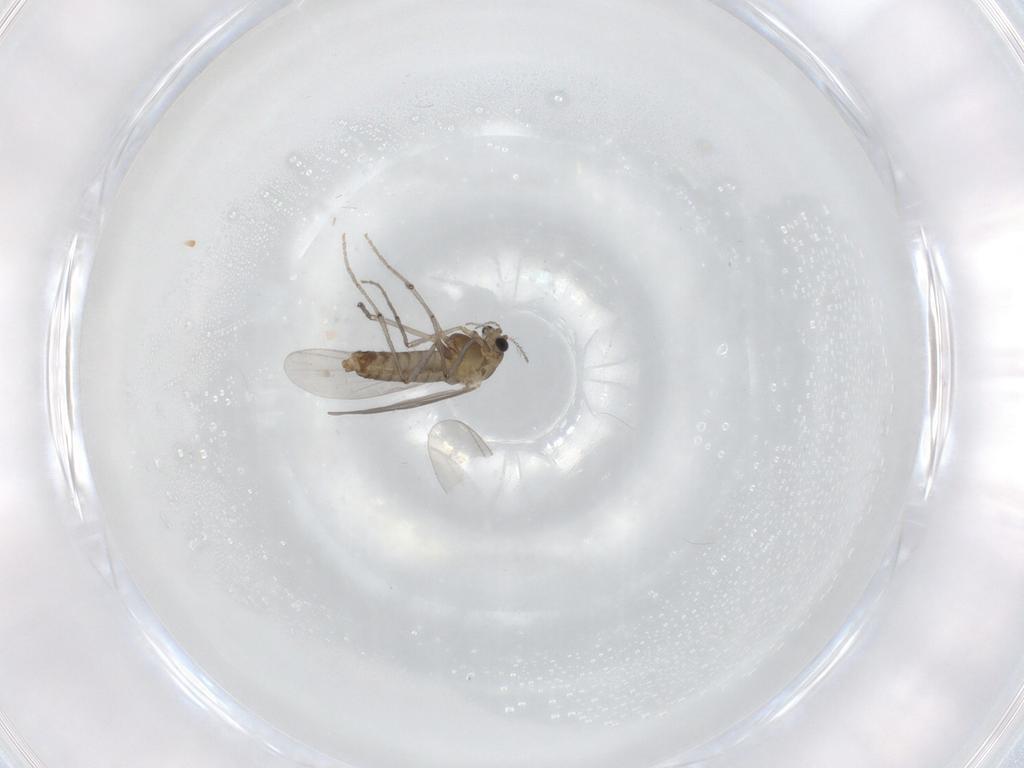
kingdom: Animalia
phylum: Arthropoda
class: Insecta
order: Diptera
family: Chironomidae
